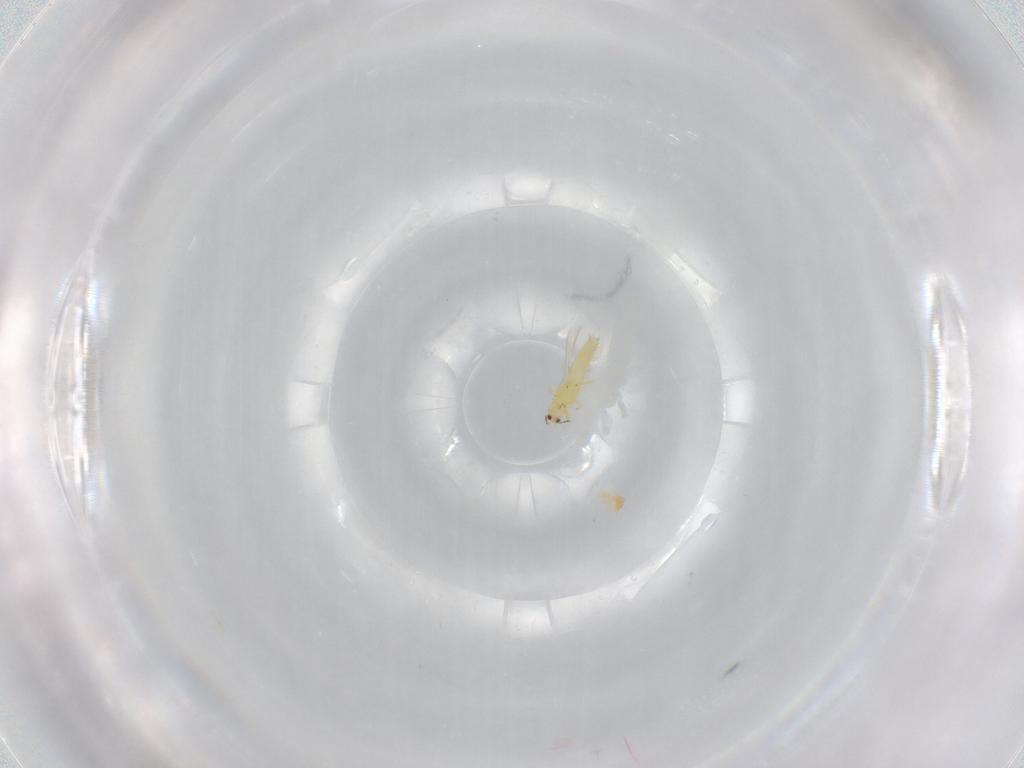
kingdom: Animalia
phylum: Arthropoda
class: Insecta
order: Thysanoptera
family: Thripidae
